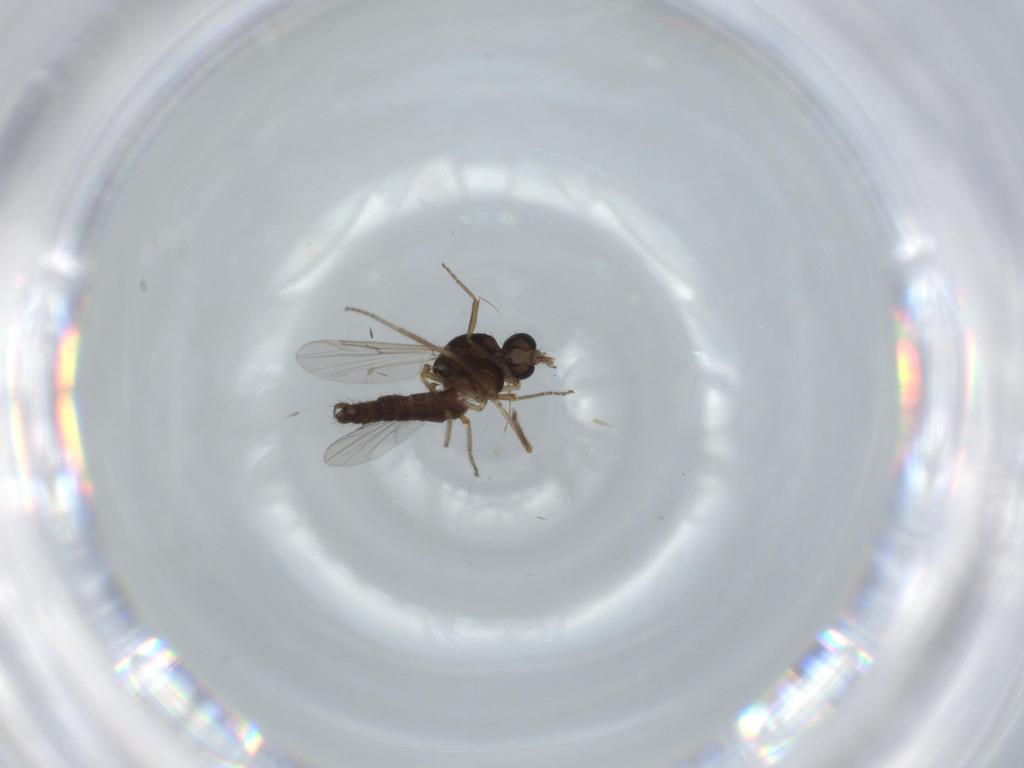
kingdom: Animalia
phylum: Arthropoda
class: Insecta
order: Diptera
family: Ceratopogonidae
